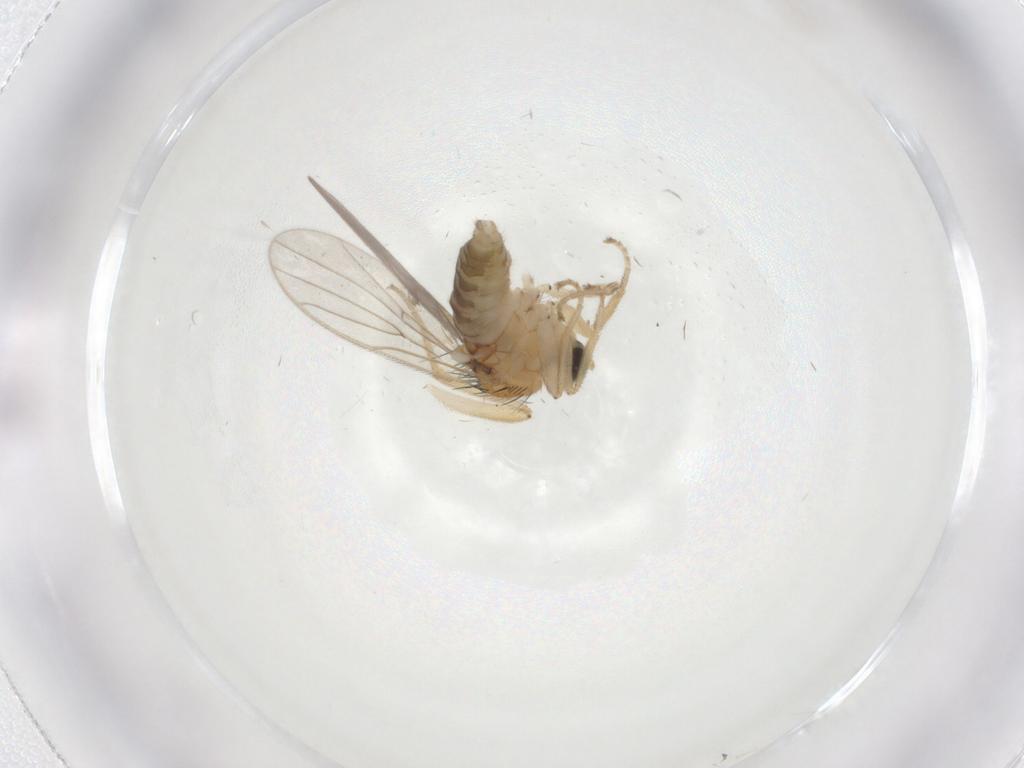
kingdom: Animalia
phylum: Arthropoda
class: Insecta
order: Diptera
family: Hybotidae
